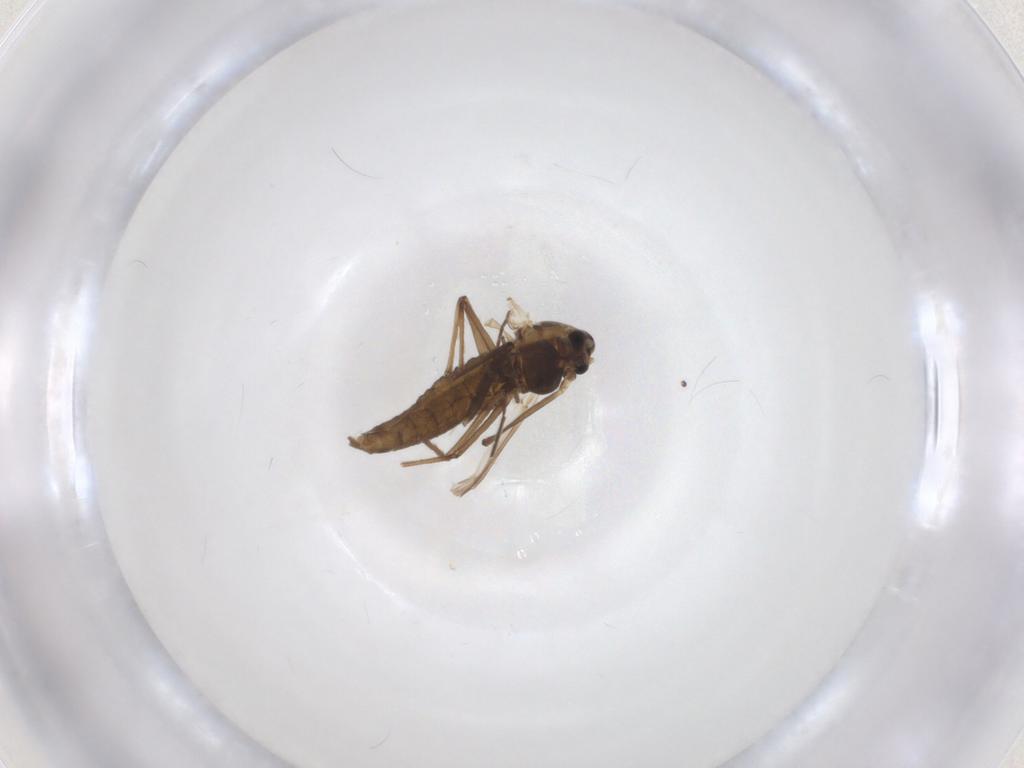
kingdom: Animalia
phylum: Arthropoda
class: Insecta
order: Diptera
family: Chironomidae
